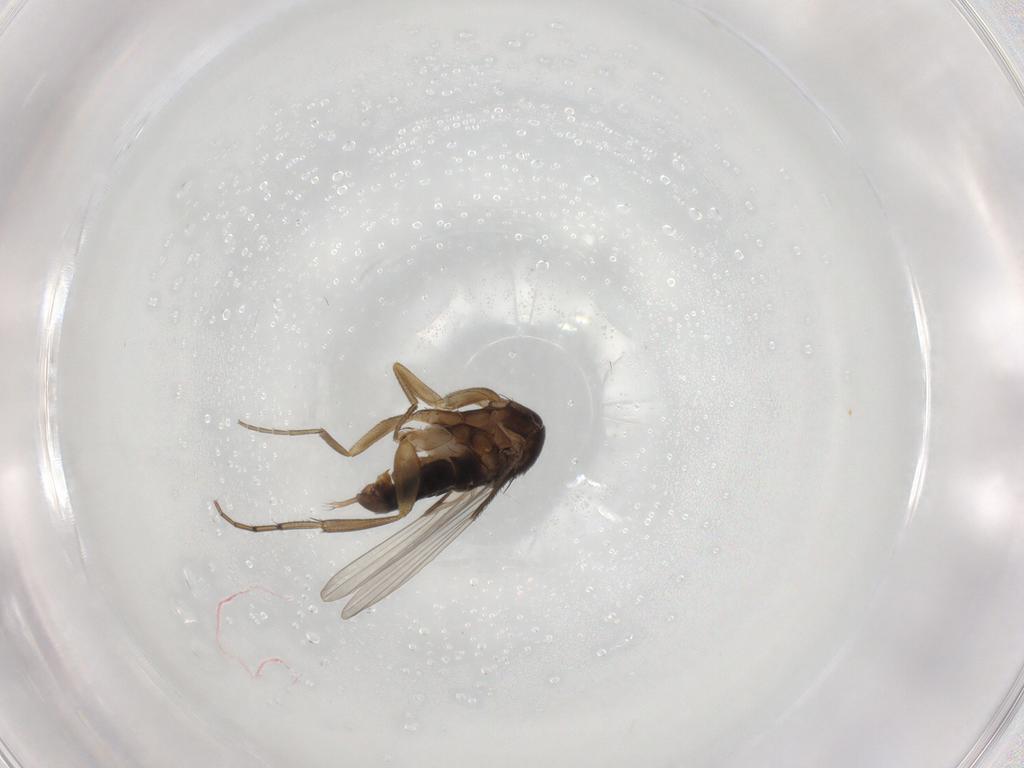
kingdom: Animalia
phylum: Arthropoda
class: Insecta
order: Diptera
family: Phoridae
